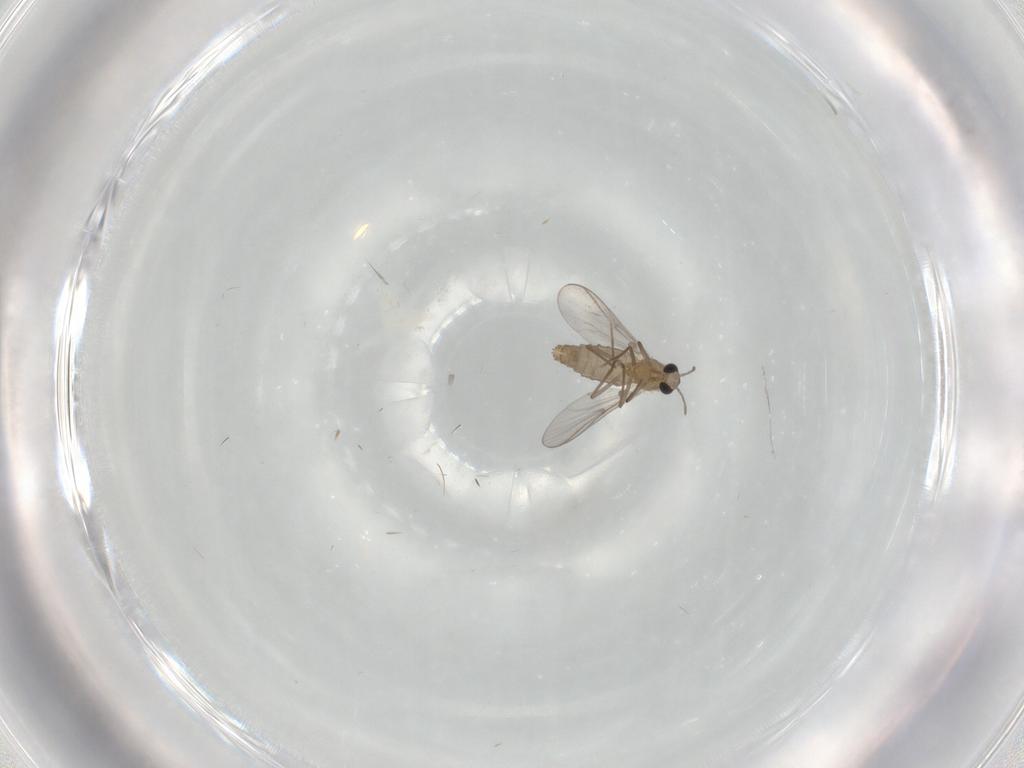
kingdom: Animalia
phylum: Arthropoda
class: Insecta
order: Diptera
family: Chironomidae
